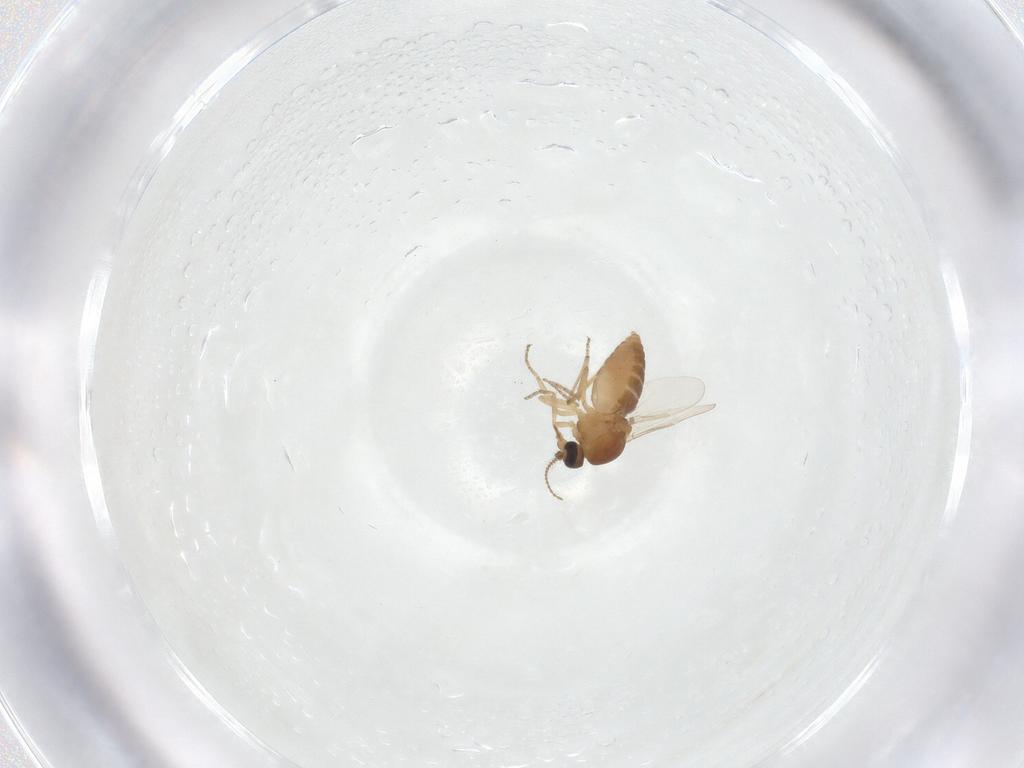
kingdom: Animalia
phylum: Arthropoda
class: Insecta
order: Diptera
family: Ceratopogonidae
